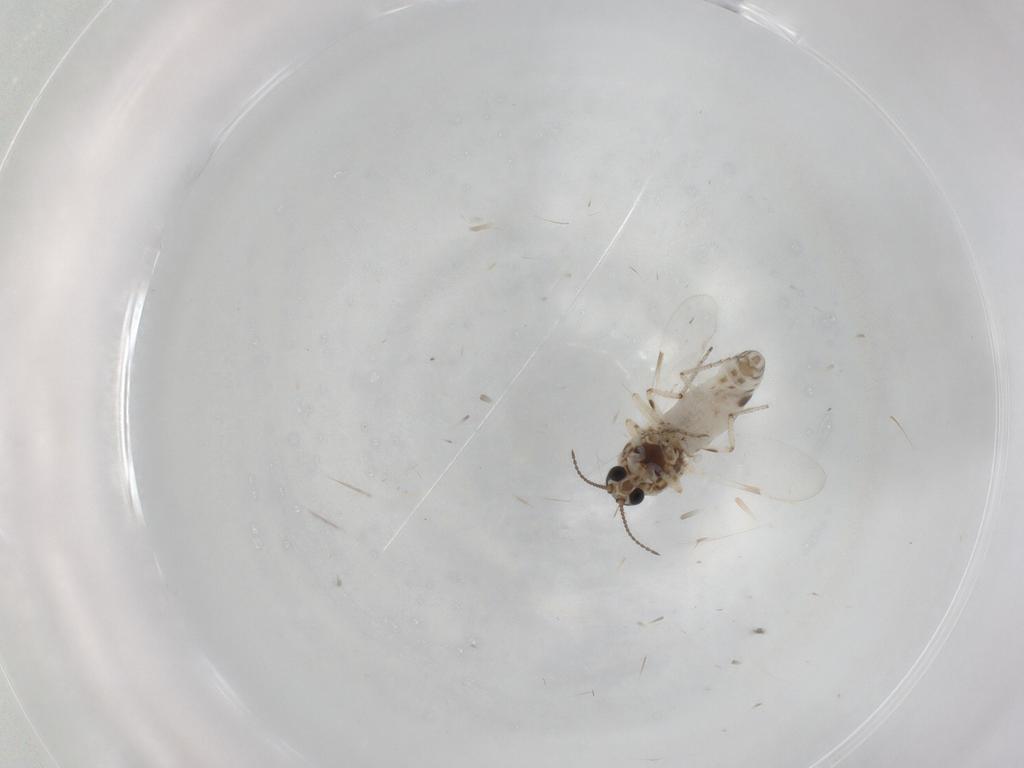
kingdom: Animalia
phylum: Arthropoda
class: Insecta
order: Diptera
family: Ceratopogonidae
